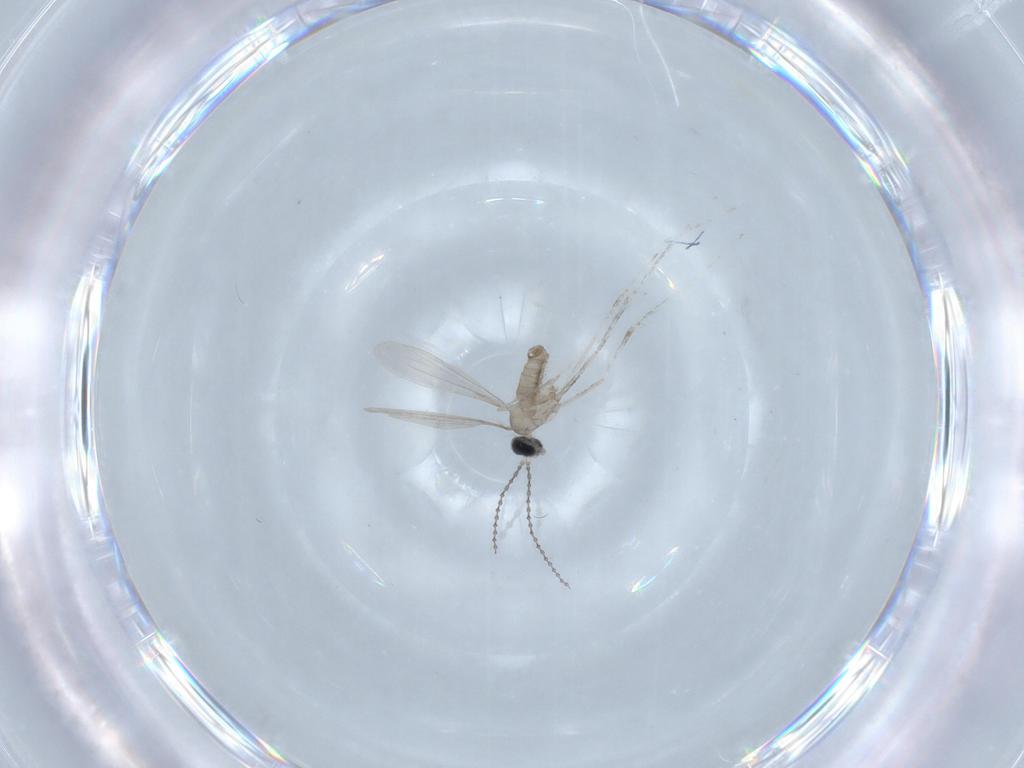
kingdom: Animalia
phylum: Arthropoda
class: Insecta
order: Diptera
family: Cecidomyiidae
